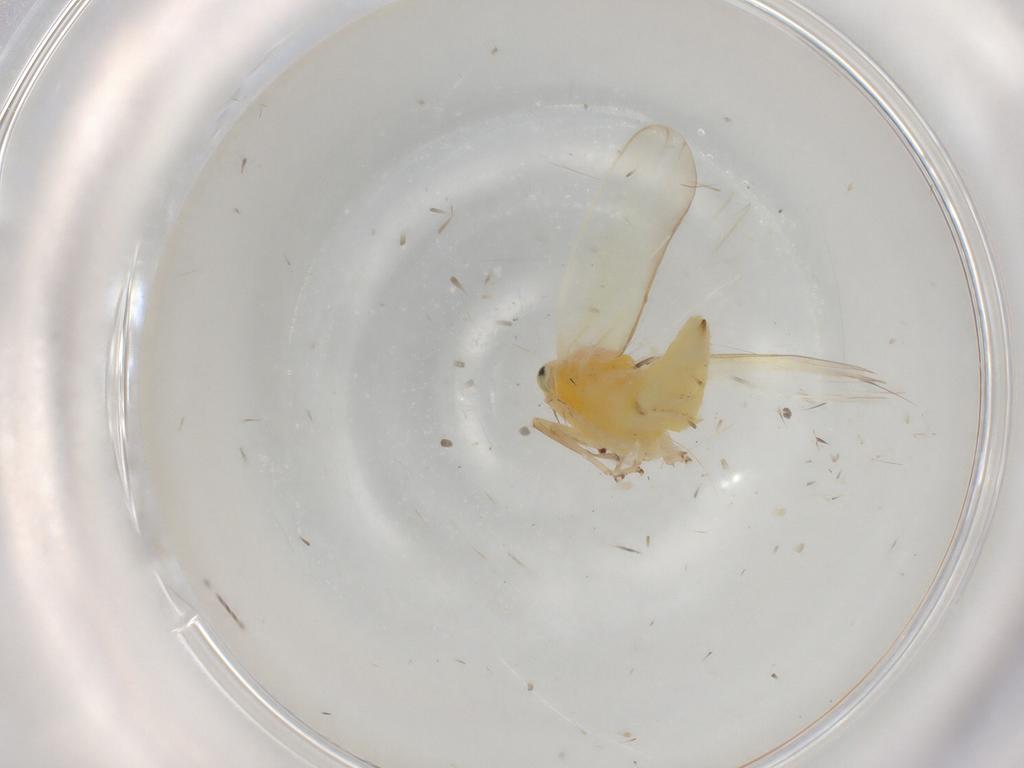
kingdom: Animalia
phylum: Arthropoda
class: Insecta
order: Hemiptera
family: Cicadellidae
